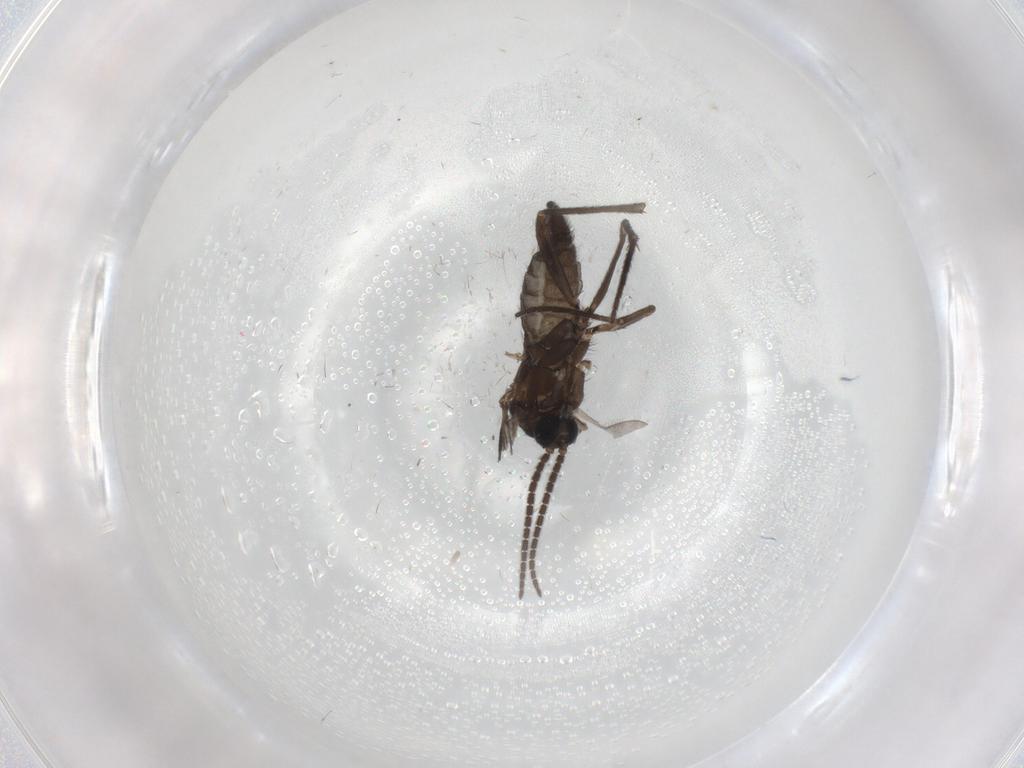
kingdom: Animalia
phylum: Arthropoda
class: Insecta
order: Diptera
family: Sciaridae
